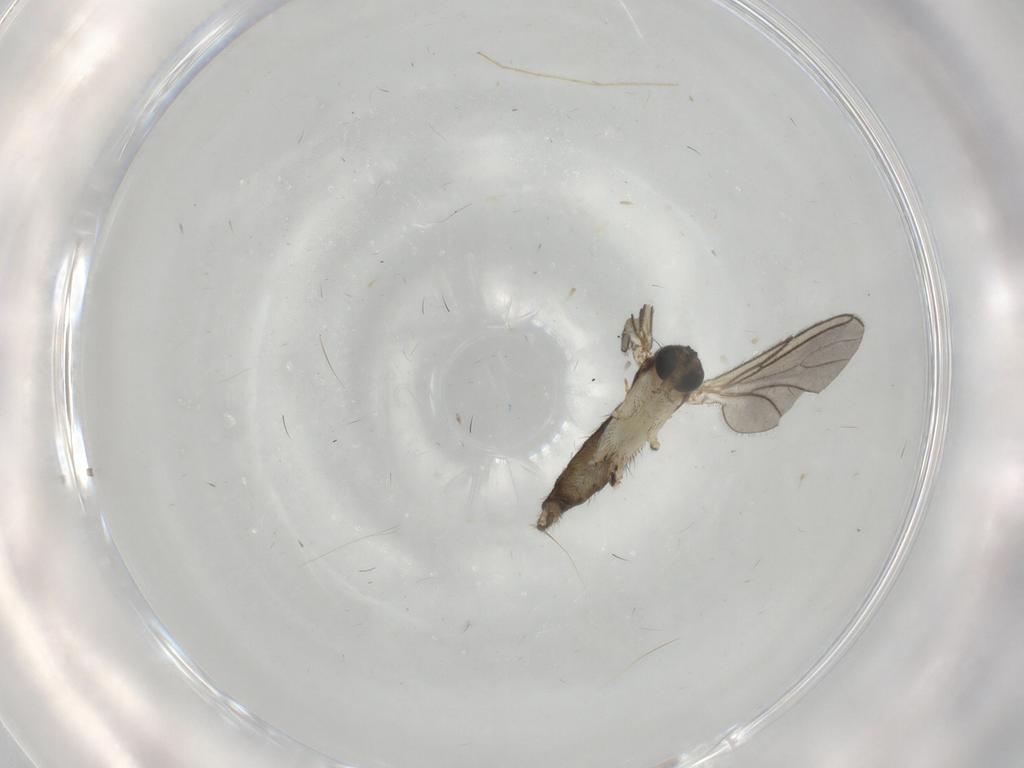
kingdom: Animalia
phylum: Arthropoda
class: Insecta
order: Diptera
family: Sciaridae
